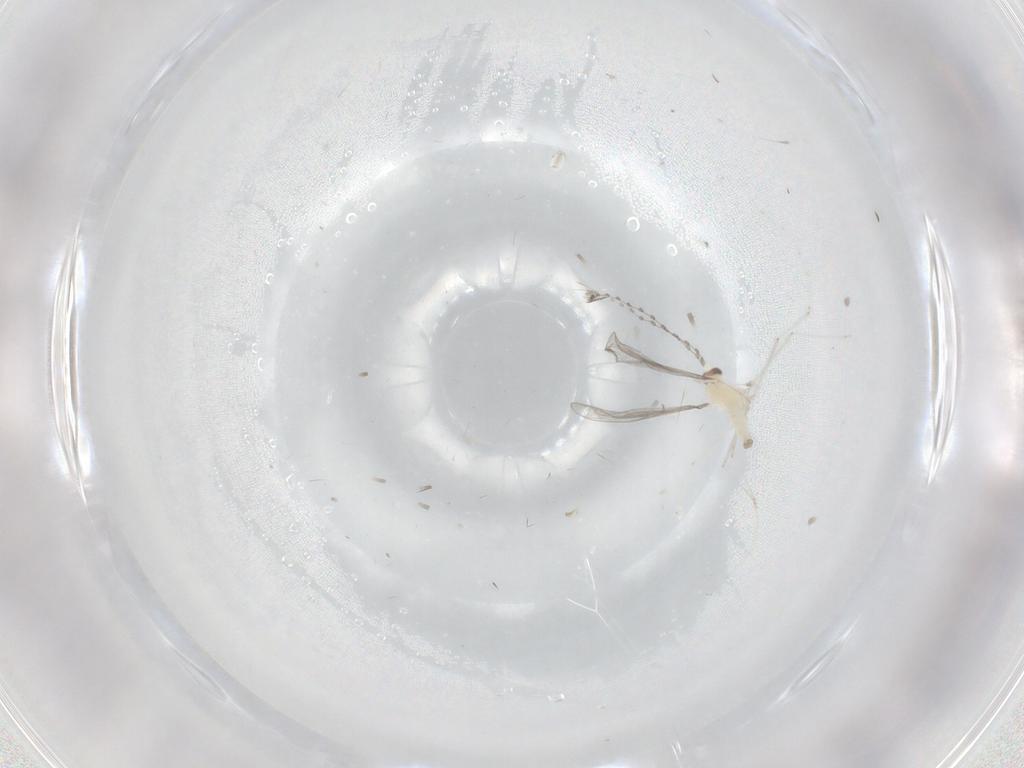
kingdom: Animalia
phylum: Arthropoda
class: Insecta
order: Diptera
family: Cecidomyiidae
